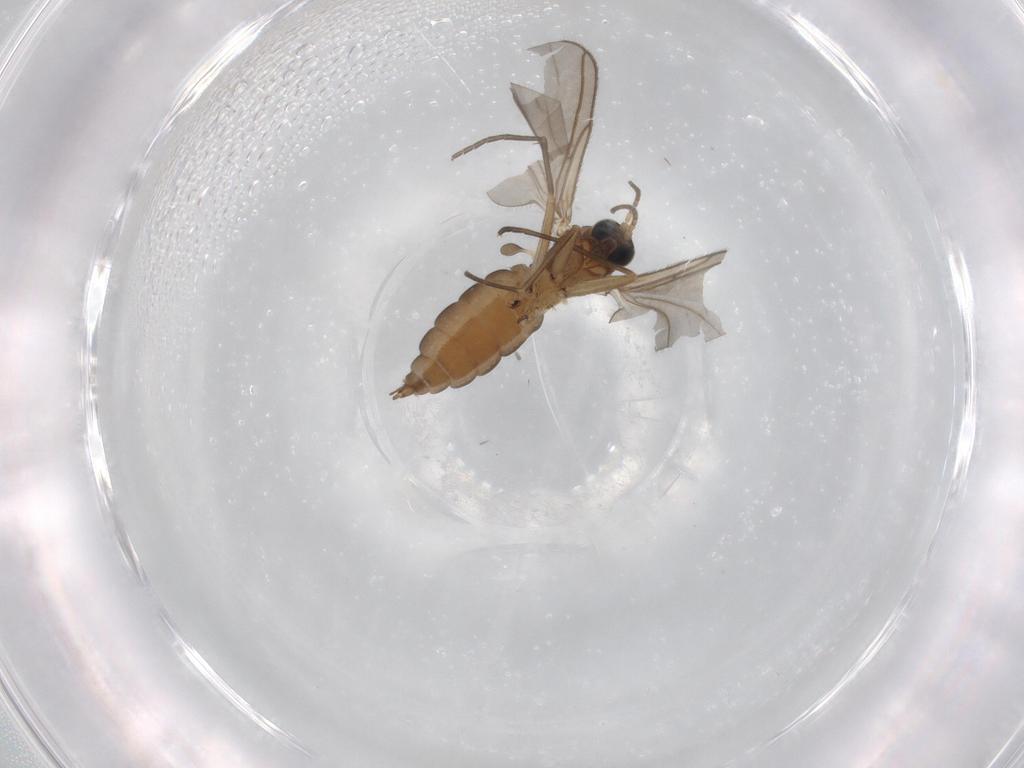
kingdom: Animalia
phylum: Arthropoda
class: Insecta
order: Diptera
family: Sciaridae
